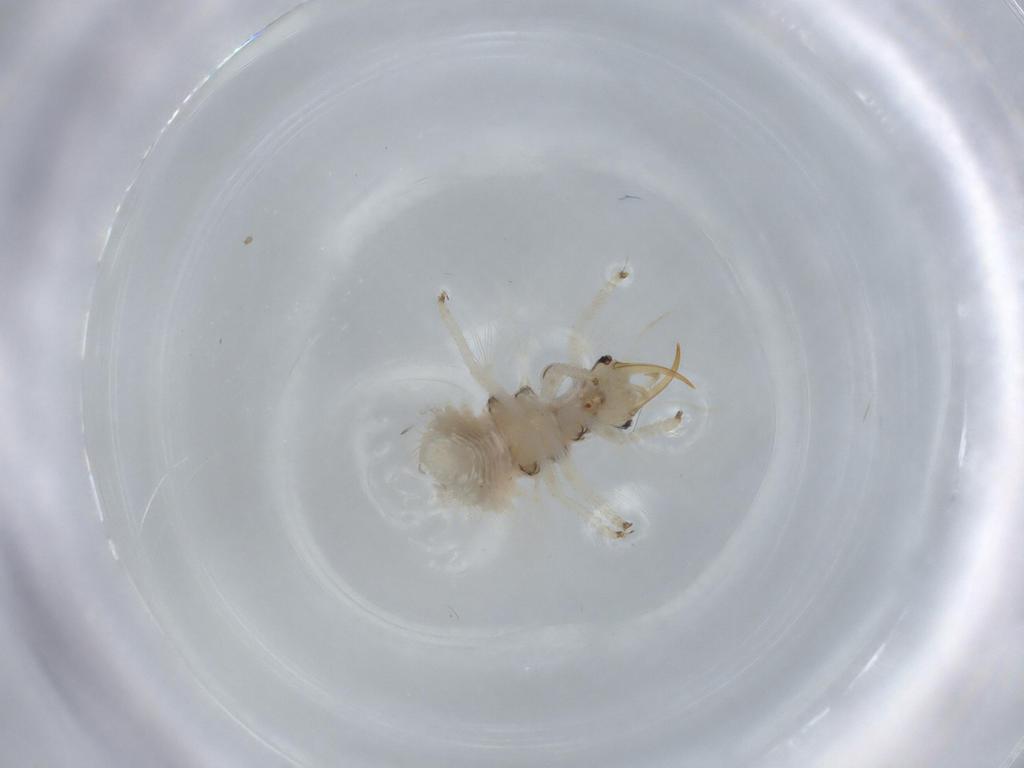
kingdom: Animalia
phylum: Arthropoda
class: Insecta
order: Neuroptera
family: Chrysopidae
